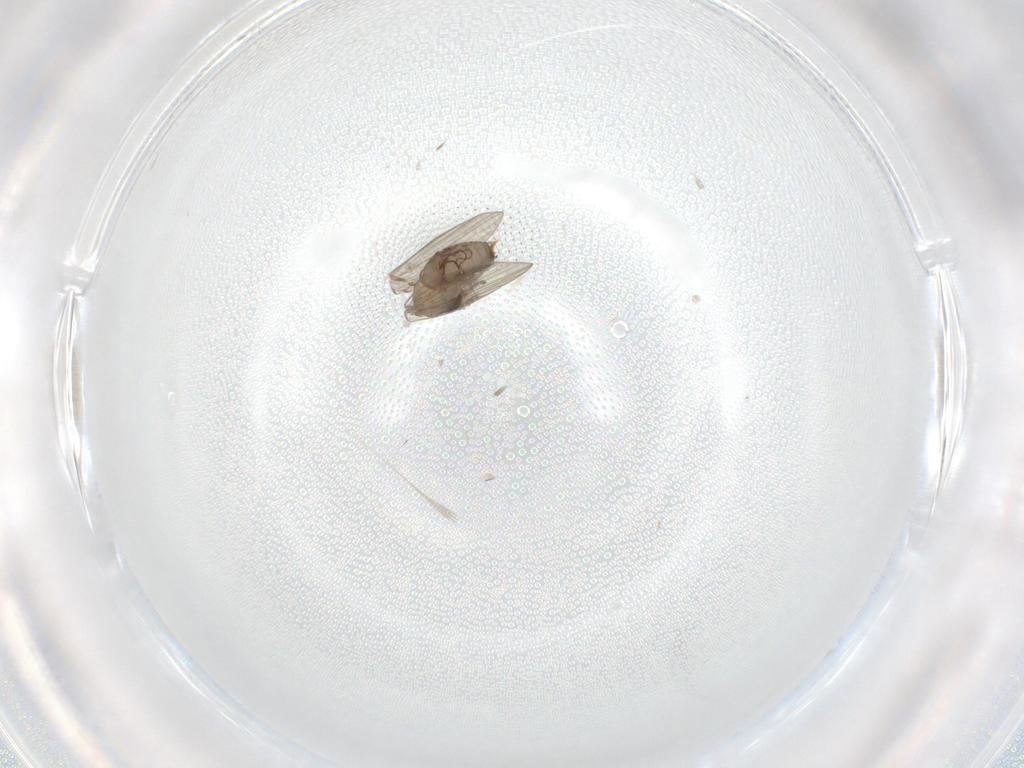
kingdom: Animalia
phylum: Arthropoda
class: Insecta
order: Diptera
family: Psychodidae
